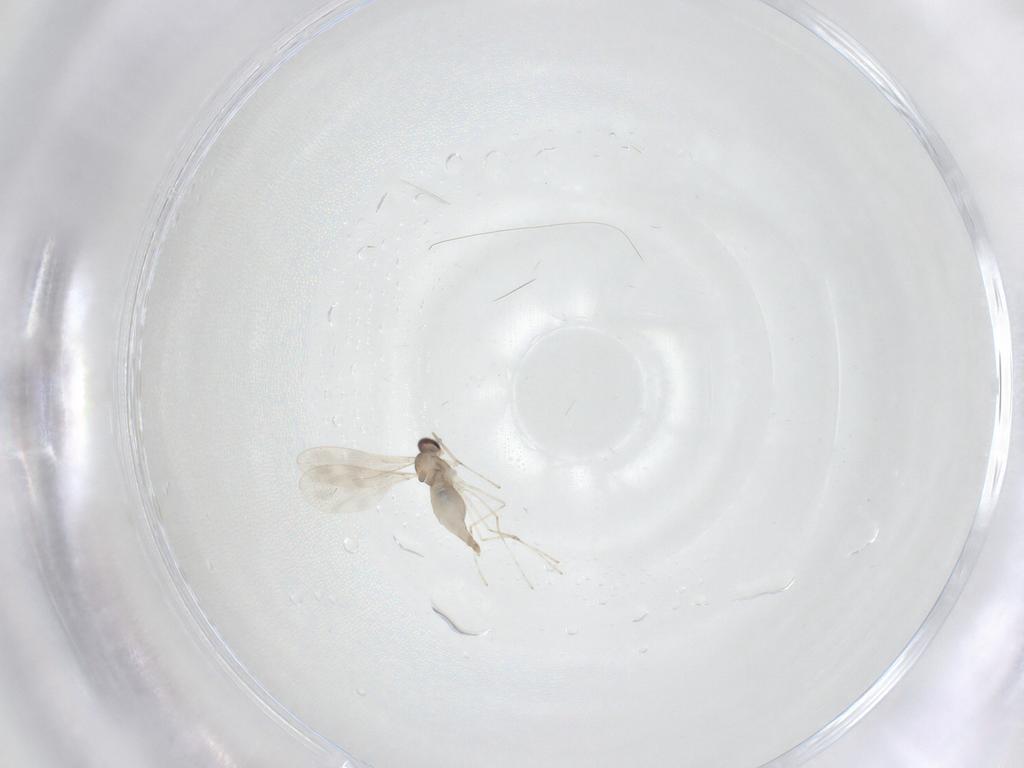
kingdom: Animalia
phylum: Arthropoda
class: Insecta
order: Diptera
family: Cecidomyiidae
